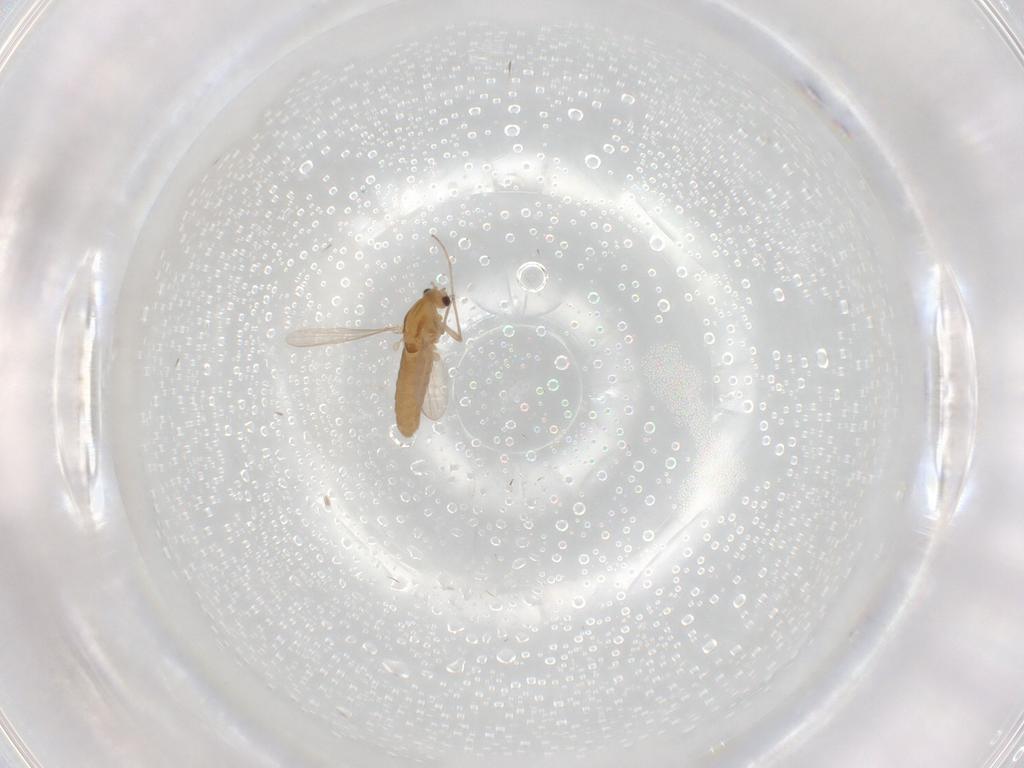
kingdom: Animalia
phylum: Arthropoda
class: Insecta
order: Diptera
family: Chironomidae
